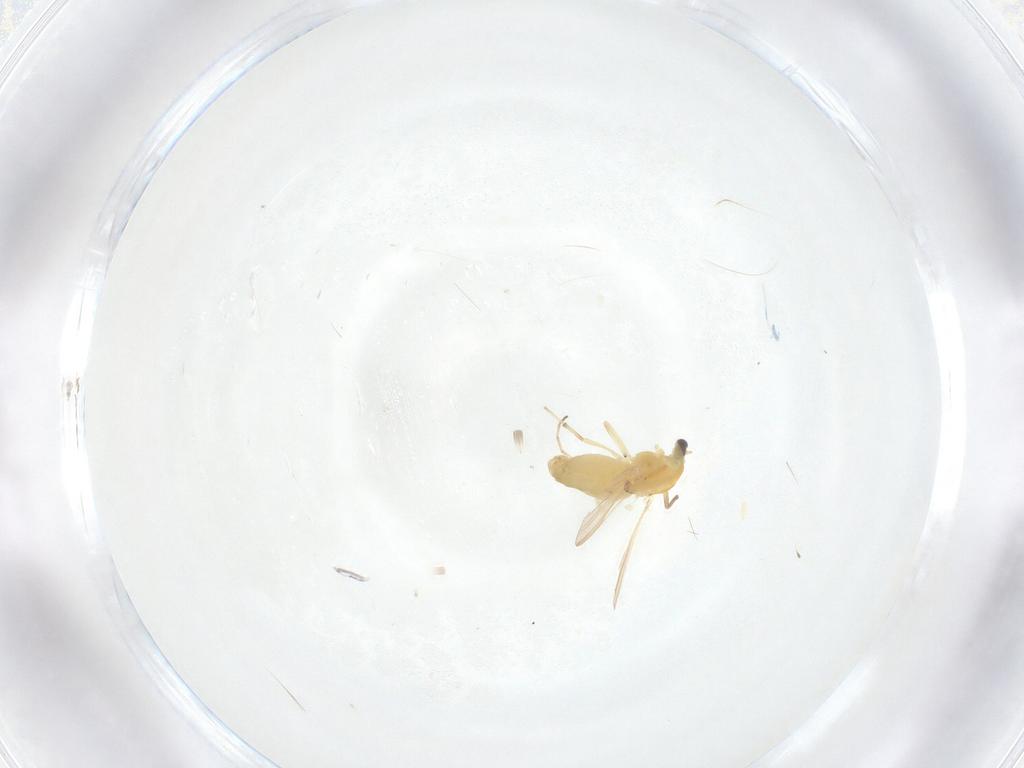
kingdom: Animalia
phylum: Arthropoda
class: Insecta
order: Diptera
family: Chironomidae
